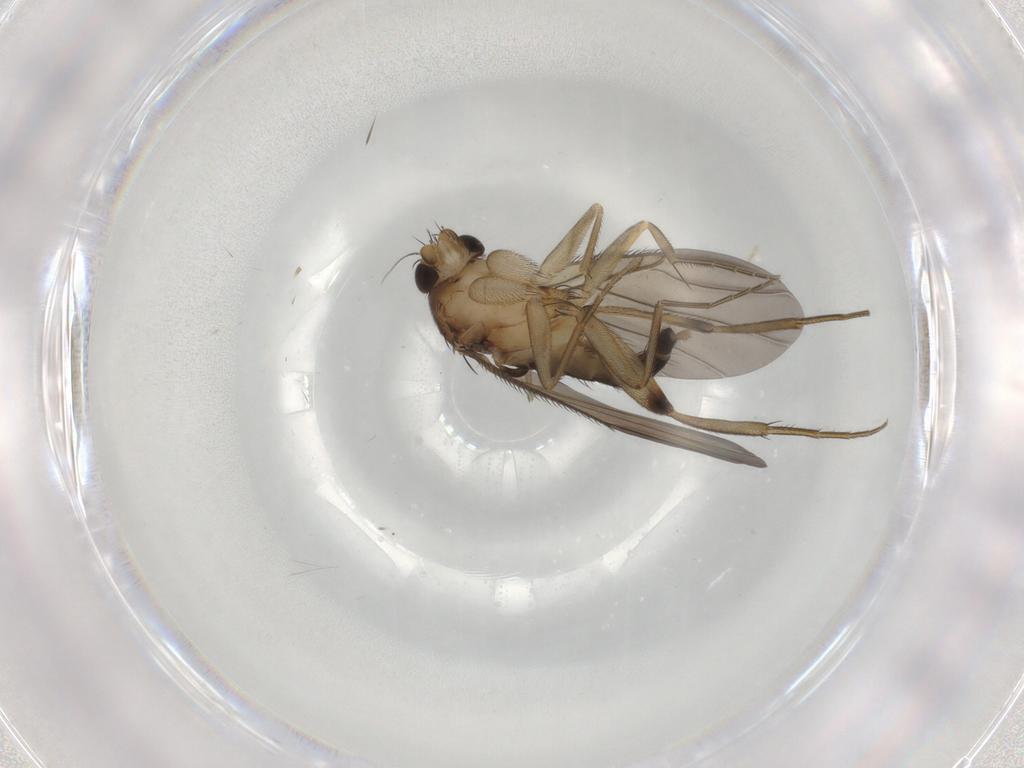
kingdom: Animalia
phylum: Arthropoda
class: Insecta
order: Diptera
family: Phoridae
